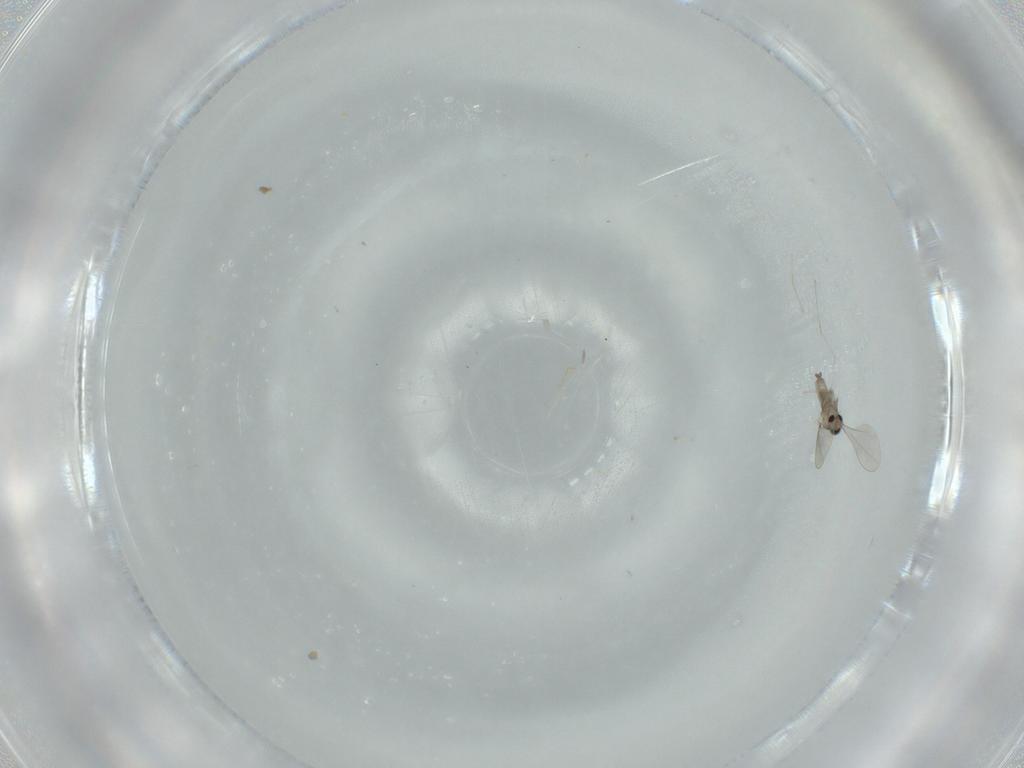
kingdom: Animalia
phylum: Arthropoda
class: Insecta
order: Diptera
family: Cecidomyiidae
